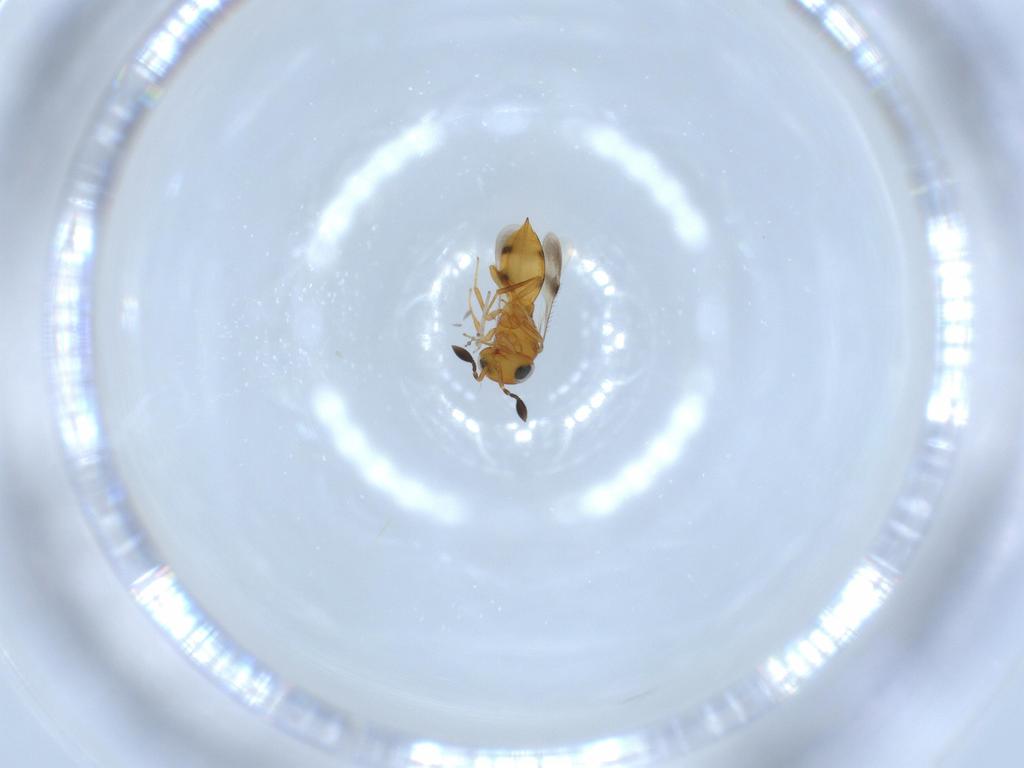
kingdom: Animalia
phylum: Arthropoda
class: Insecta
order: Hymenoptera
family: Scelionidae
